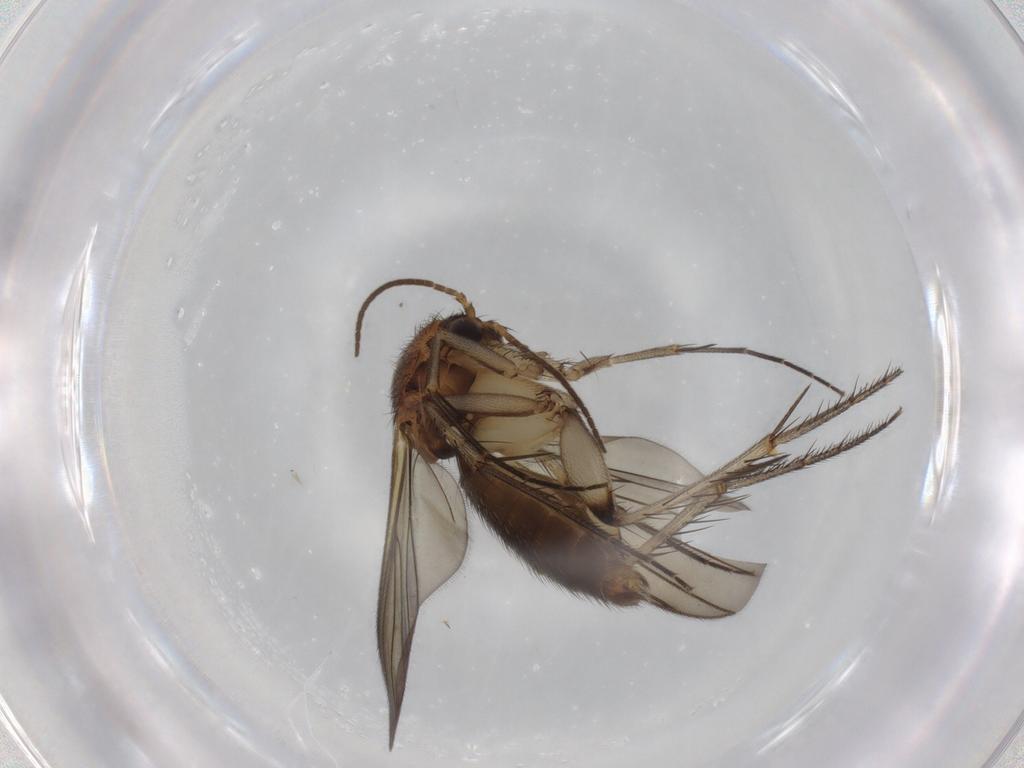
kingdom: Animalia
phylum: Arthropoda
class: Insecta
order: Diptera
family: Mycetophilidae
